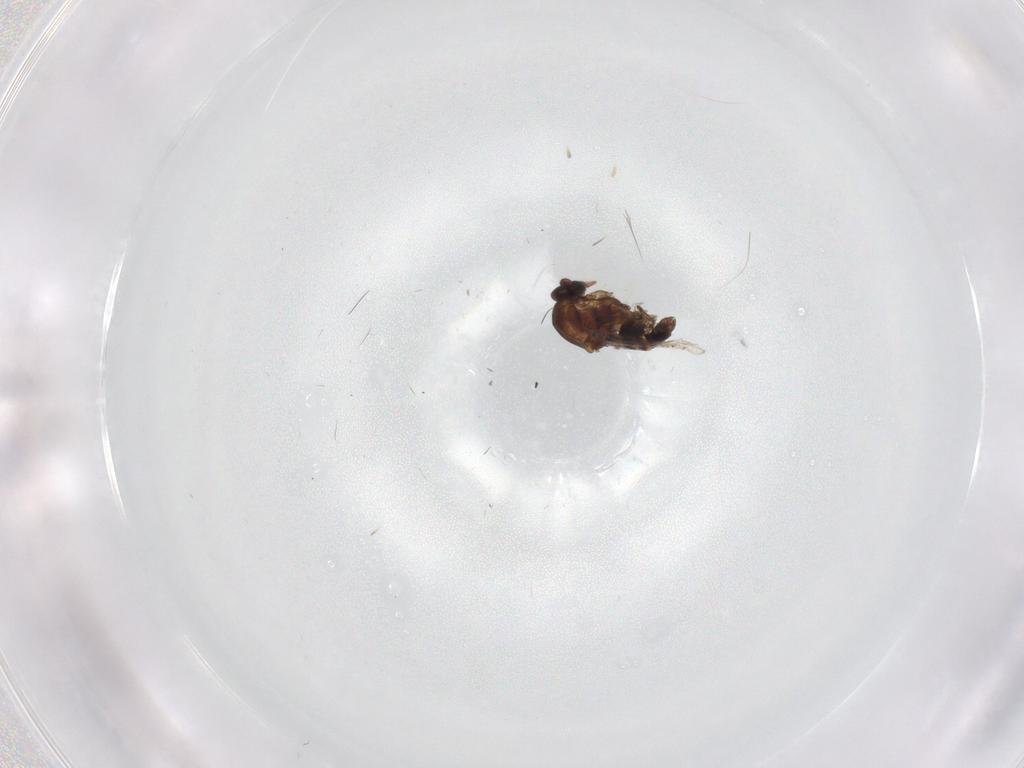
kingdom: Animalia
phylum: Arthropoda
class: Insecta
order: Diptera
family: Sciaridae
